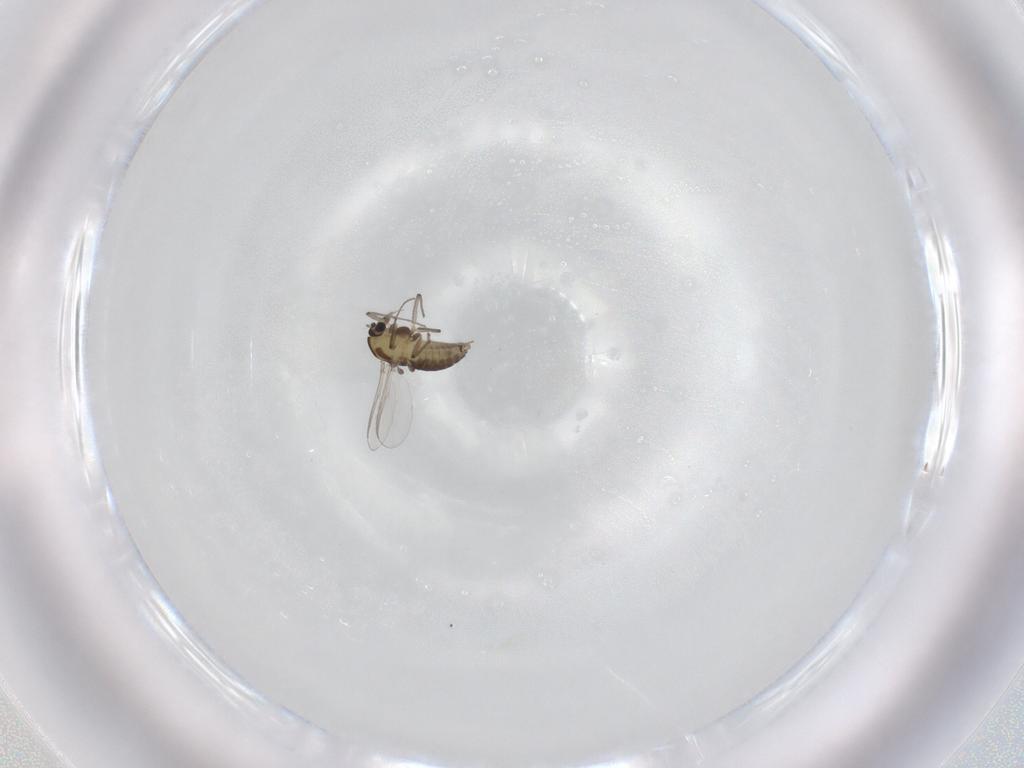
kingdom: Animalia
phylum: Arthropoda
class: Insecta
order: Diptera
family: Chironomidae
